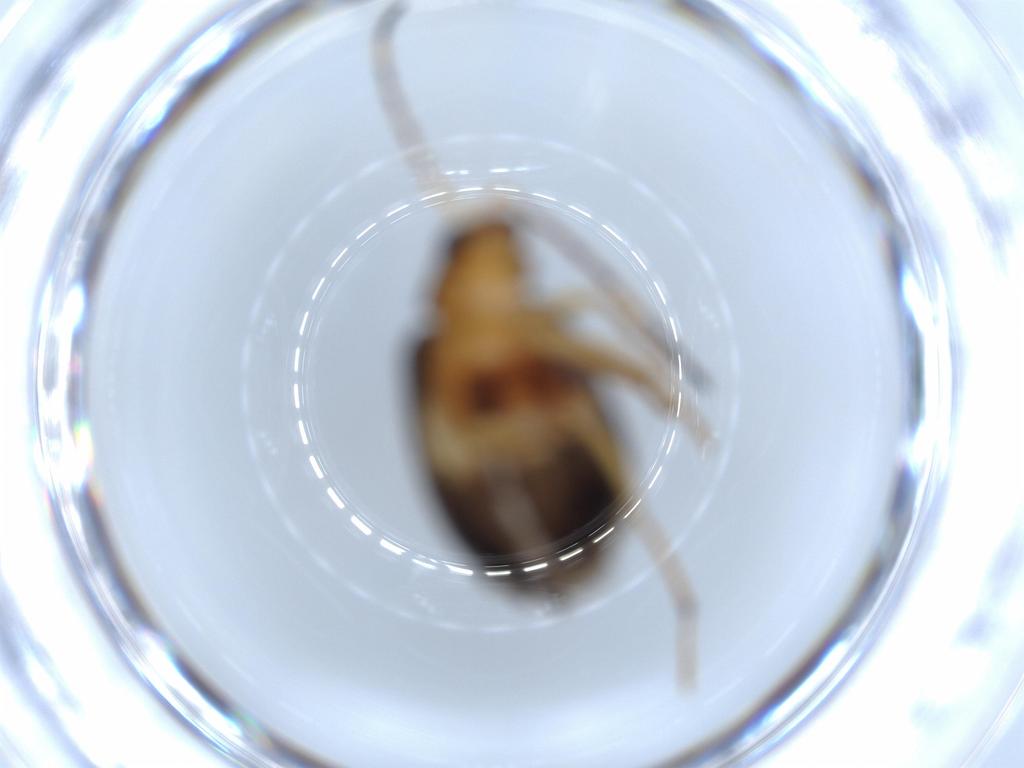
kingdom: Animalia
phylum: Arthropoda
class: Insecta
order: Coleoptera
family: Chrysomelidae
